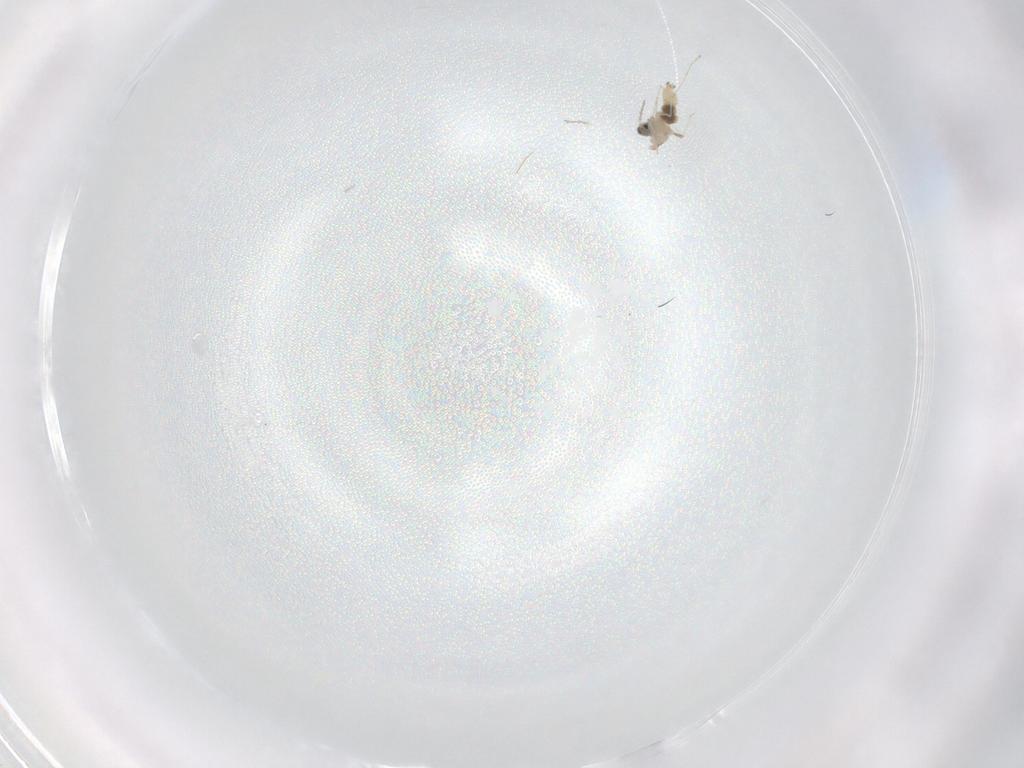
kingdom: Animalia
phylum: Arthropoda
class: Insecta
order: Diptera
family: Cecidomyiidae
